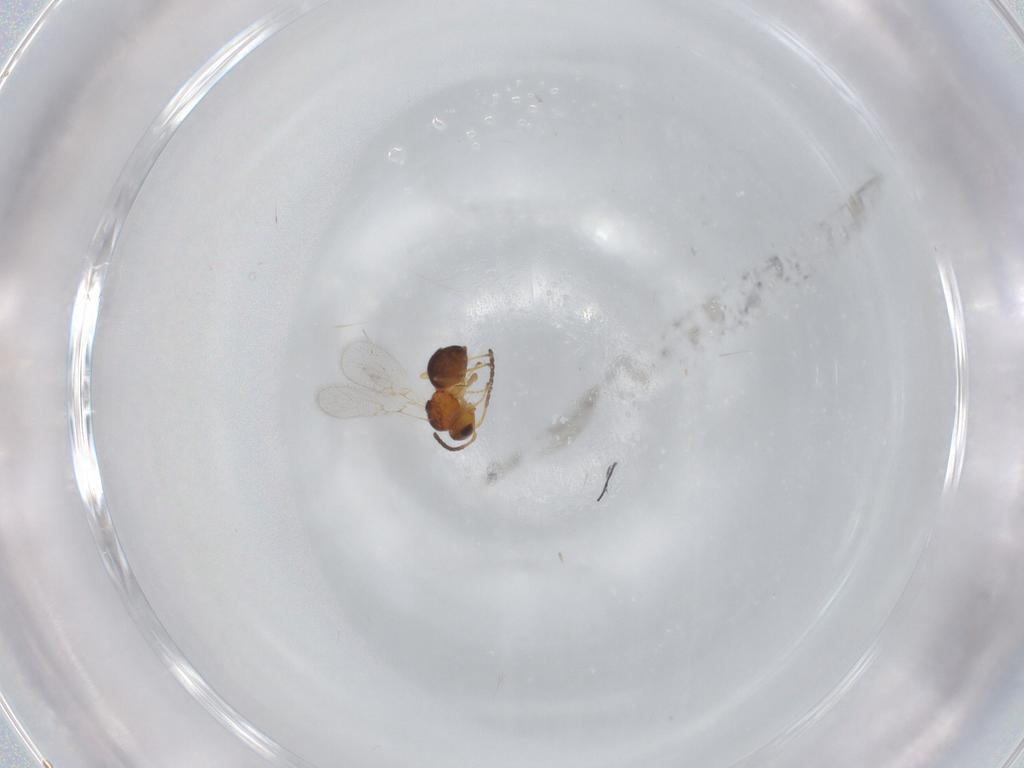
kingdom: Animalia
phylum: Arthropoda
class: Insecta
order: Hymenoptera
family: Figitidae
